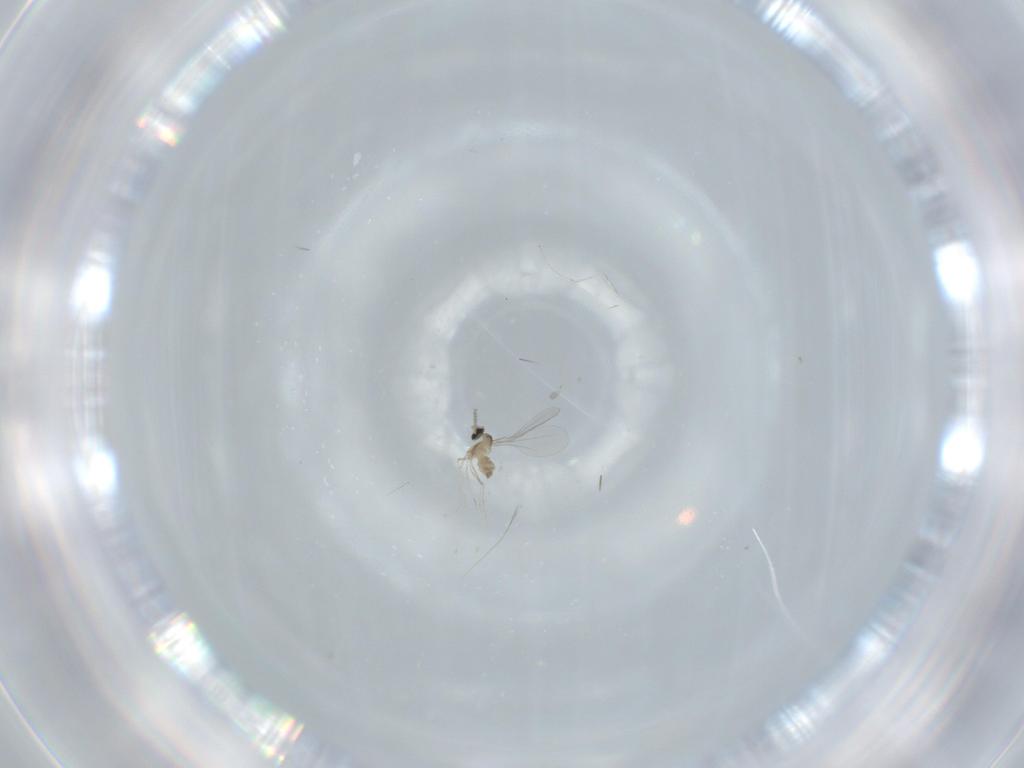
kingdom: Animalia
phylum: Arthropoda
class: Insecta
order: Diptera
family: Cecidomyiidae
